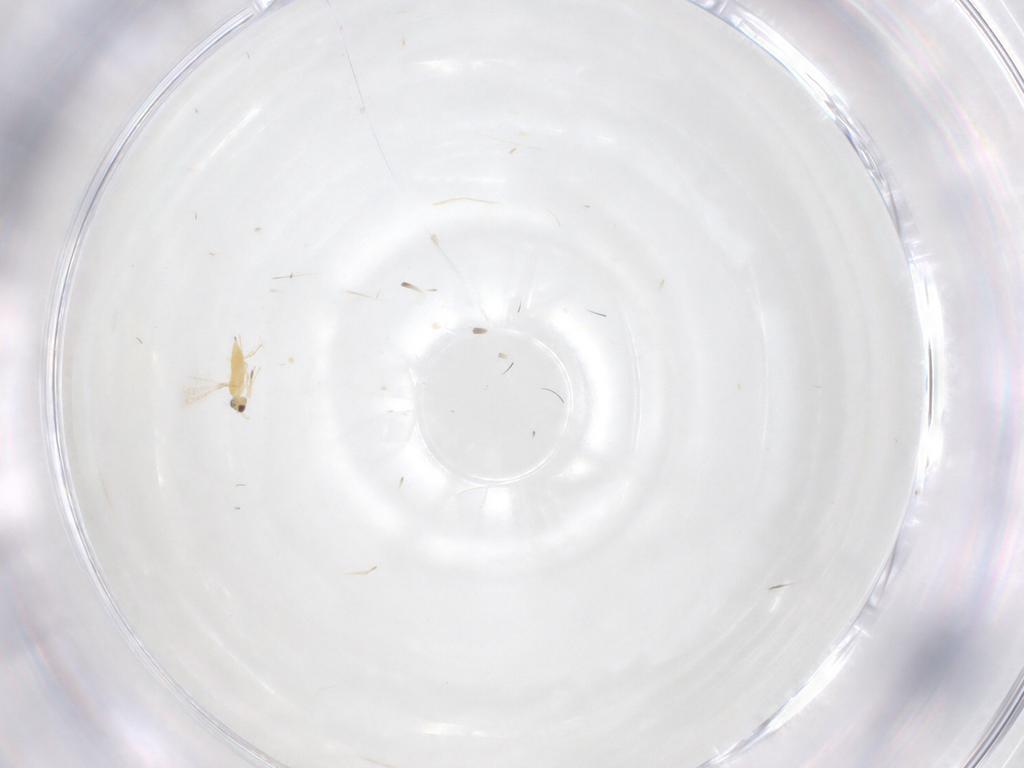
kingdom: Animalia
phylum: Arthropoda
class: Insecta
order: Hymenoptera
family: Mymaridae
